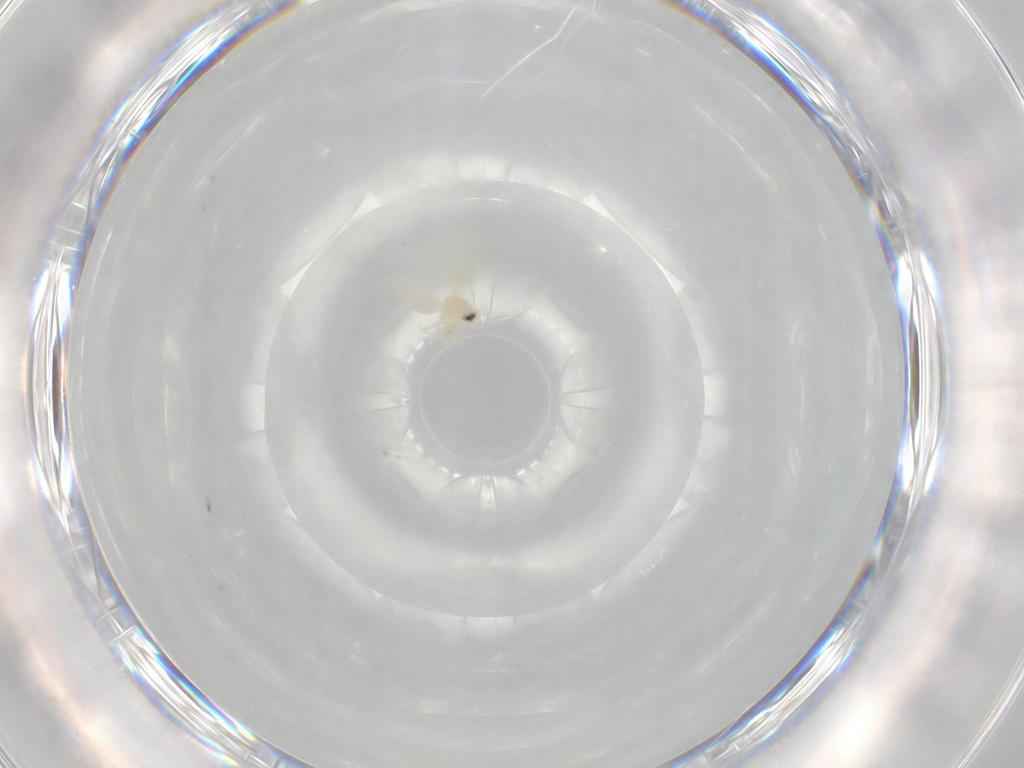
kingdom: Animalia
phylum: Arthropoda
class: Insecta
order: Hemiptera
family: Aleyrodidae
